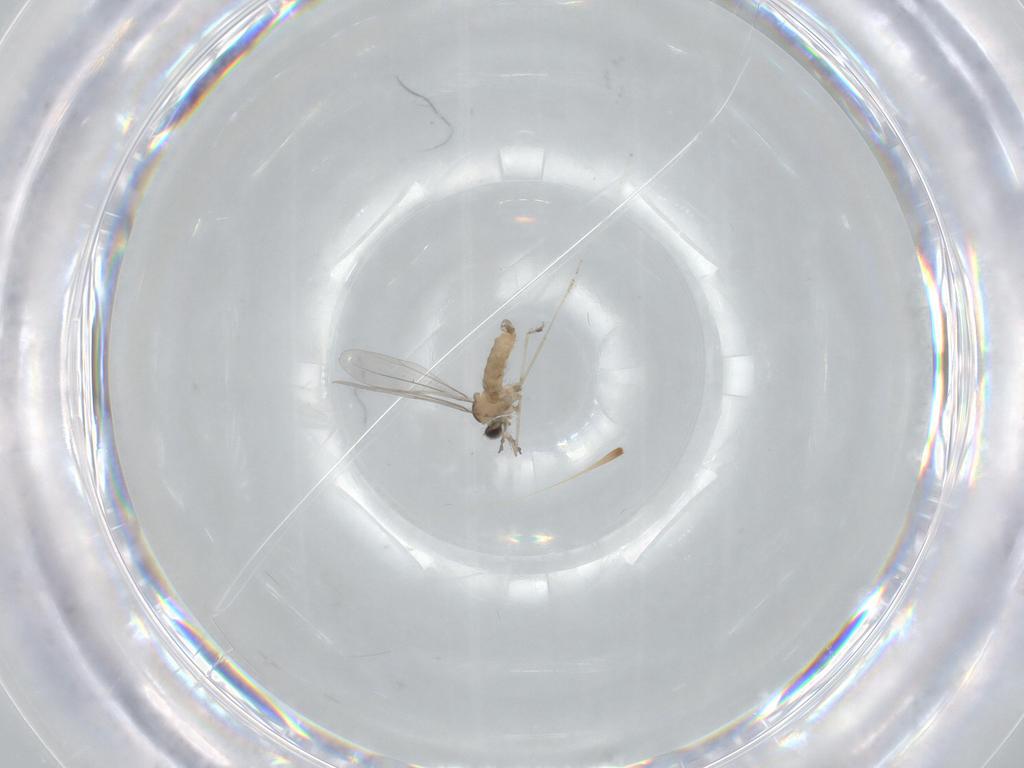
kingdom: Animalia
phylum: Arthropoda
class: Insecta
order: Diptera
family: Cecidomyiidae
